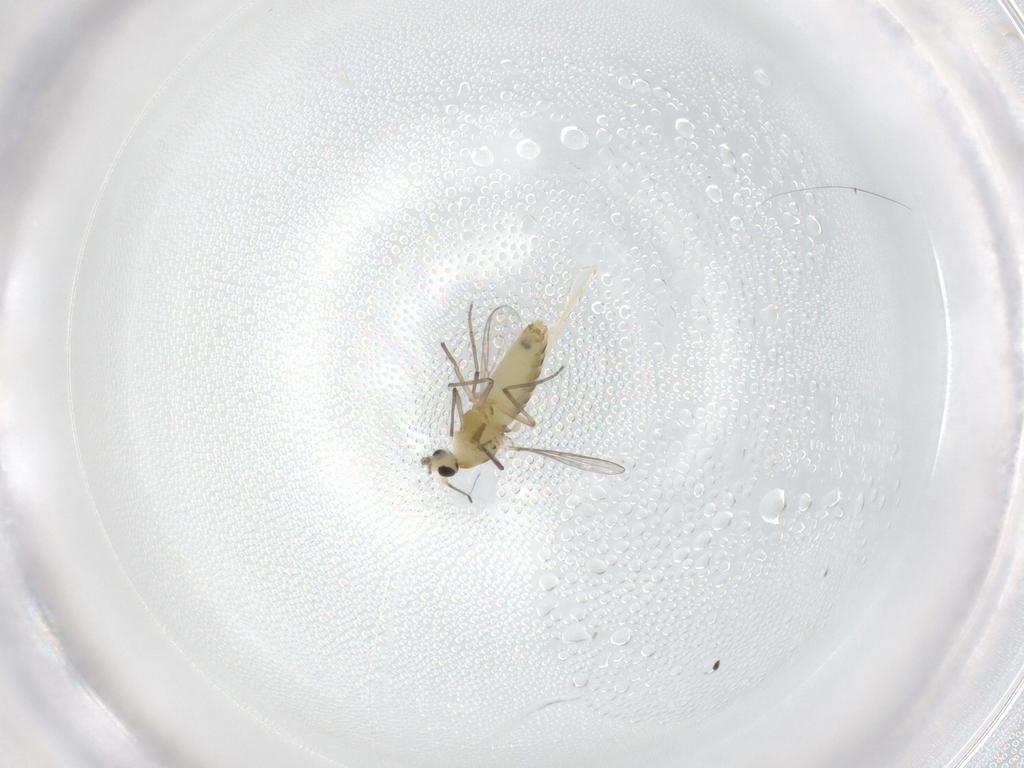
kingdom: Animalia
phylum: Arthropoda
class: Insecta
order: Diptera
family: Chironomidae
